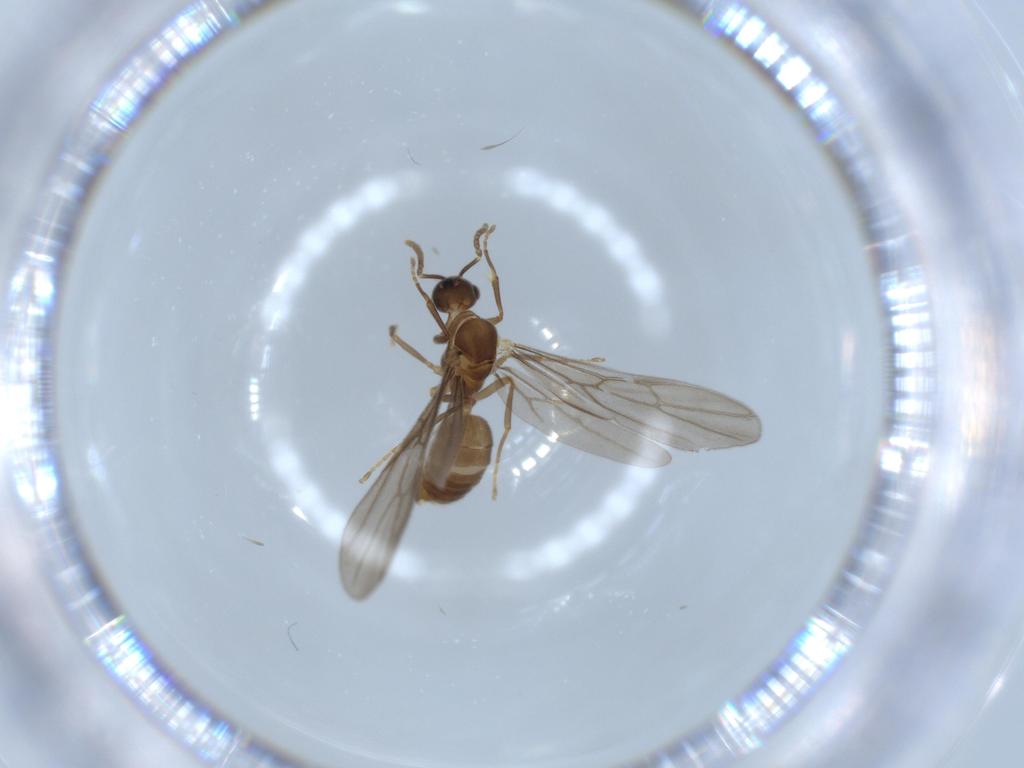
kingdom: Animalia
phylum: Arthropoda
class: Insecta
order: Hymenoptera
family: Formicidae
